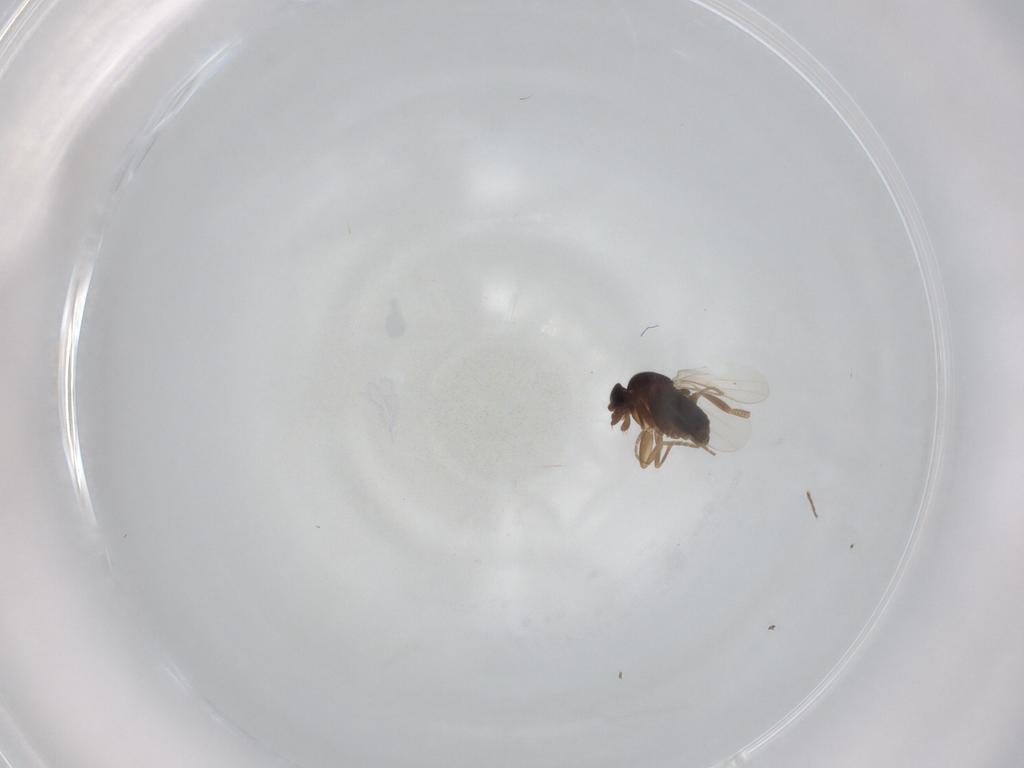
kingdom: Animalia
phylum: Arthropoda
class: Insecta
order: Diptera
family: Phoridae
